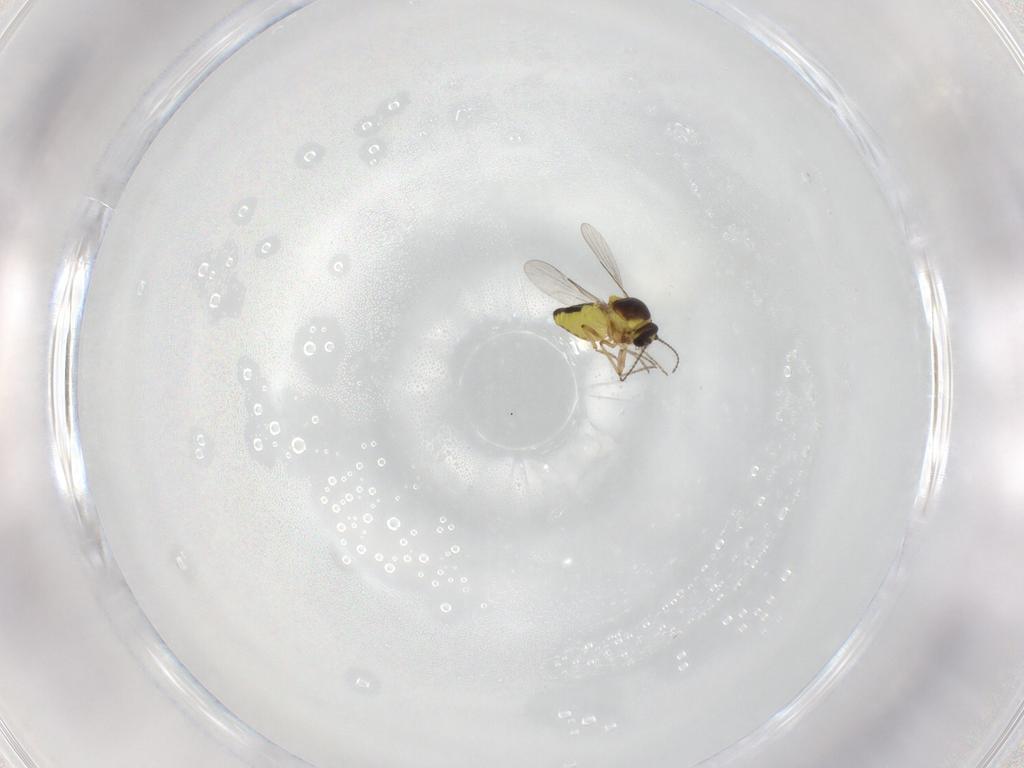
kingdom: Animalia
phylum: Arthropoda
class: Insecta
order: Diptera
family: Ceratopogonidae
